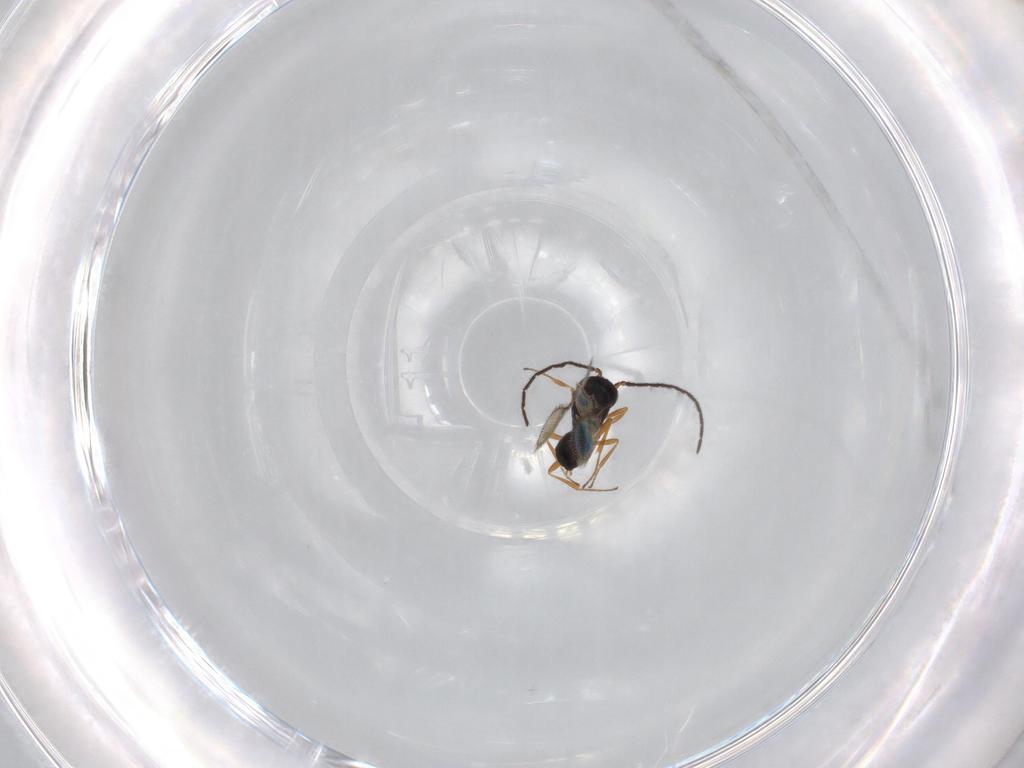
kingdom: Animalia
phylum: Arthropoda
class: Insecta
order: Hymenoptera
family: Scelionidae
